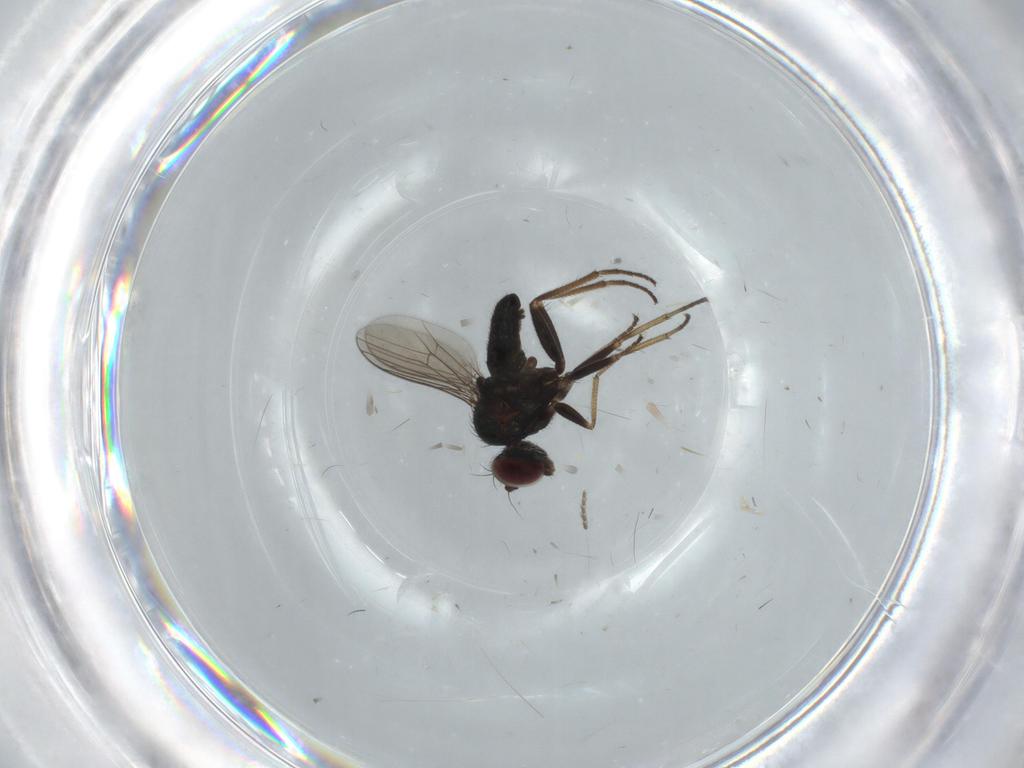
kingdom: Animalia
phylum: Arthropoda
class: Insecta
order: Diptera
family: Dolichopodidae
